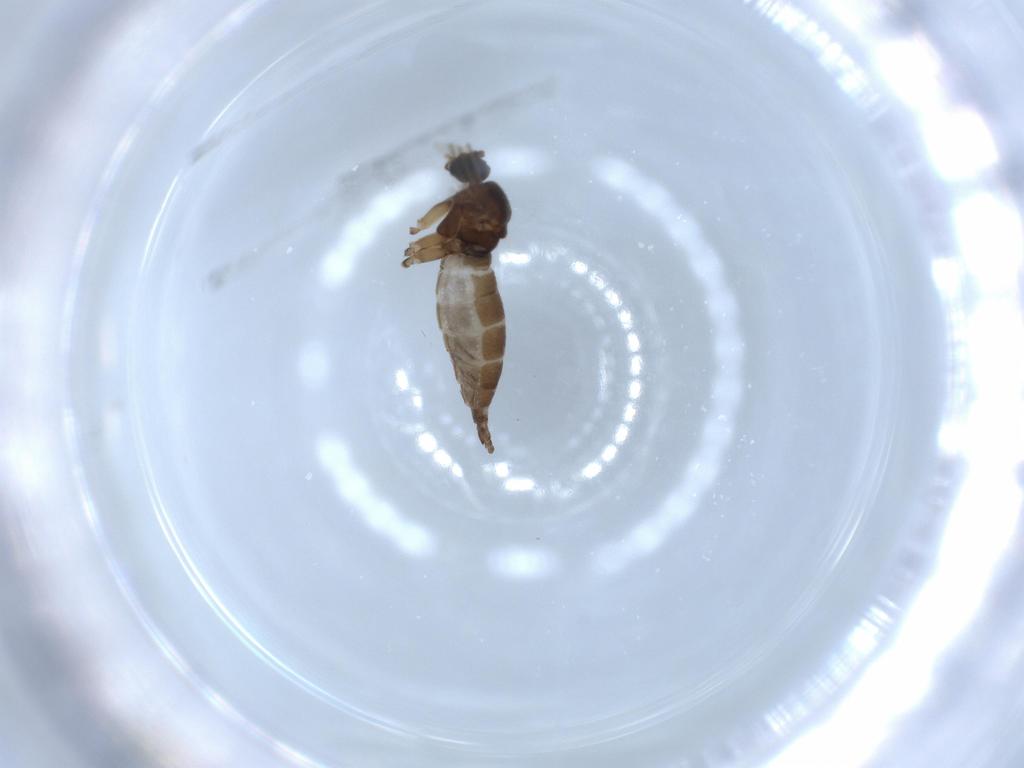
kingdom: Animalia
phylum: Arthropoda
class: Insecta
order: Diptera
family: Sciaridae
